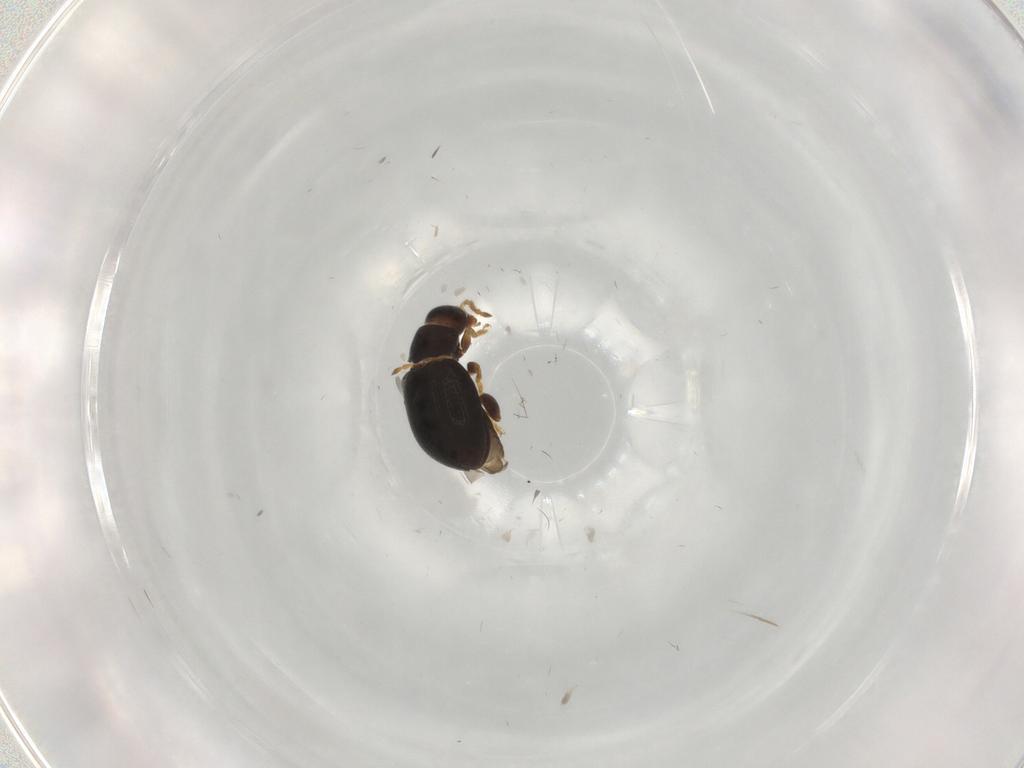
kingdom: Animalia
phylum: Arthropoda
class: Insecta
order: Coleoptera
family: Chrysomelidae
